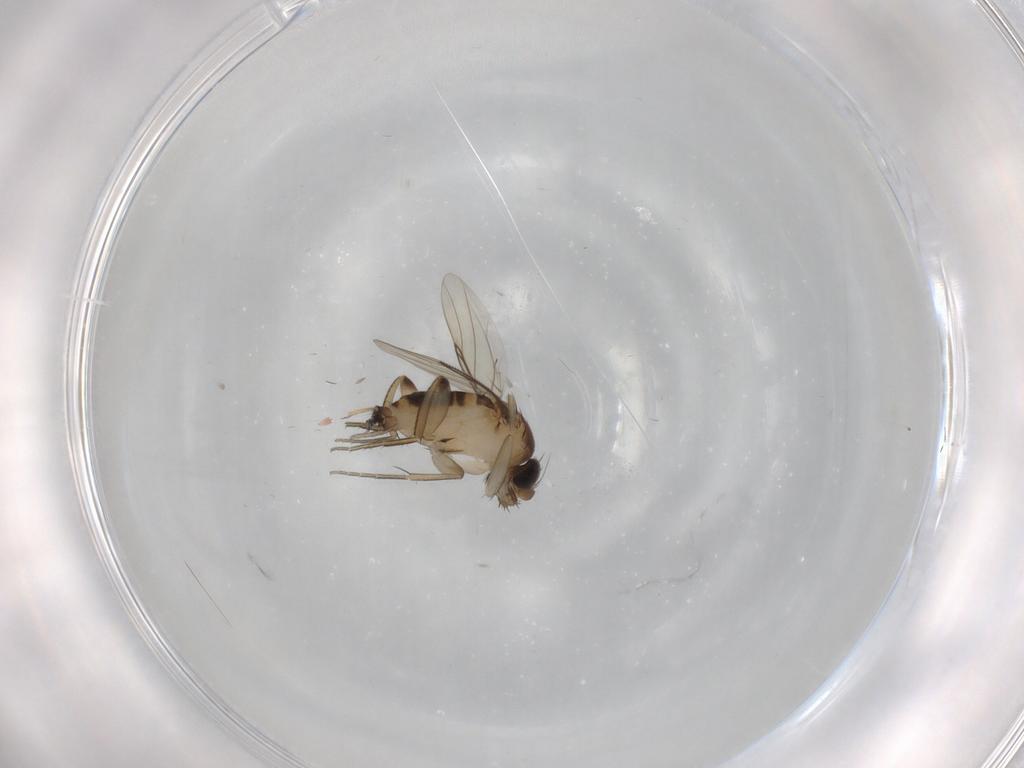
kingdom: Animalia
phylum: Arthropoda
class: Insecta
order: Diptera
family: Phoridae
